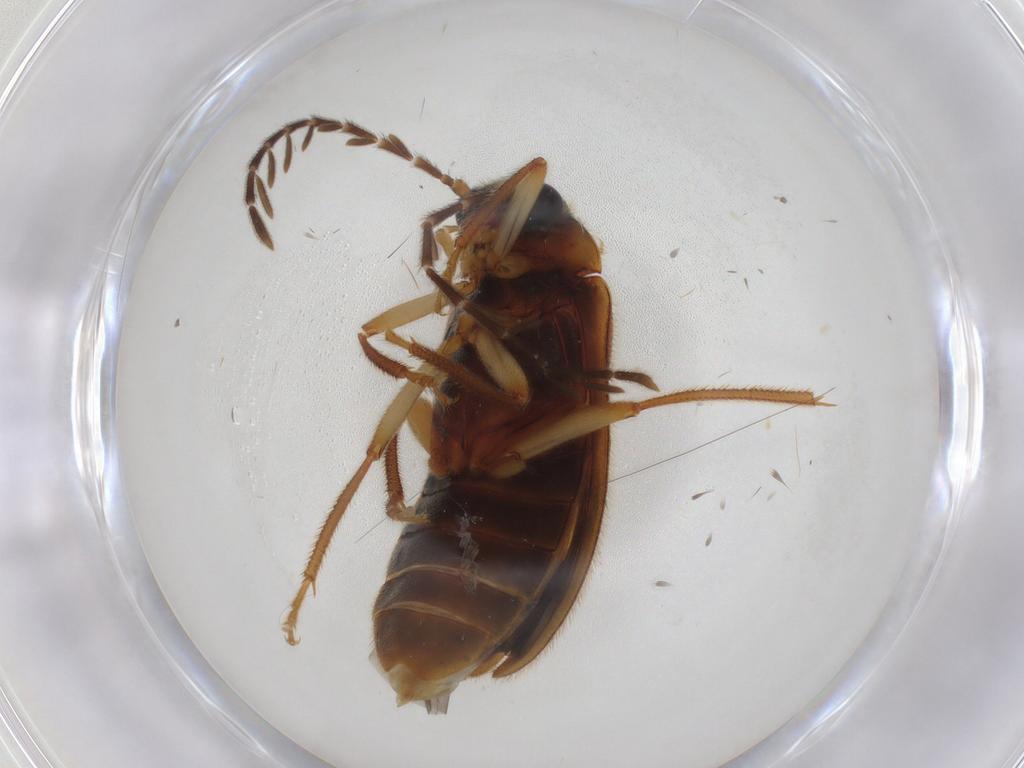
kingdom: Animalia
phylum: Arthropoda
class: Insecta
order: Coleoptera
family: Ptilodactylidae
